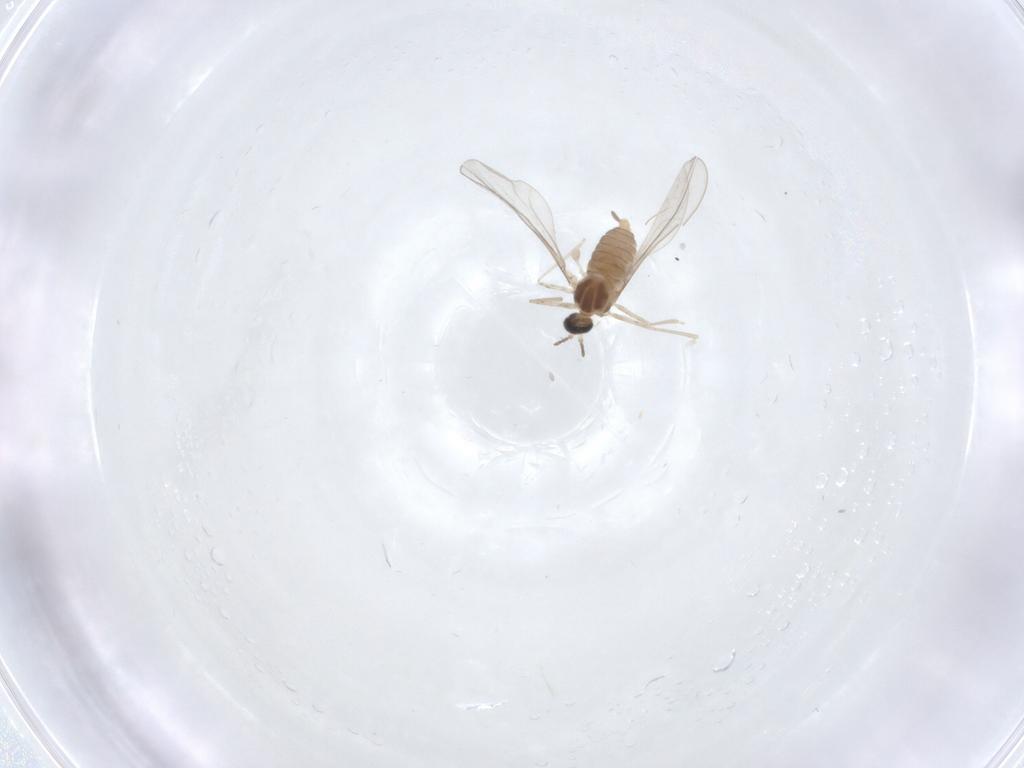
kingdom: Animalia
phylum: Arthropoda
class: Insecta
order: Diptera
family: Cecidomyiidae
